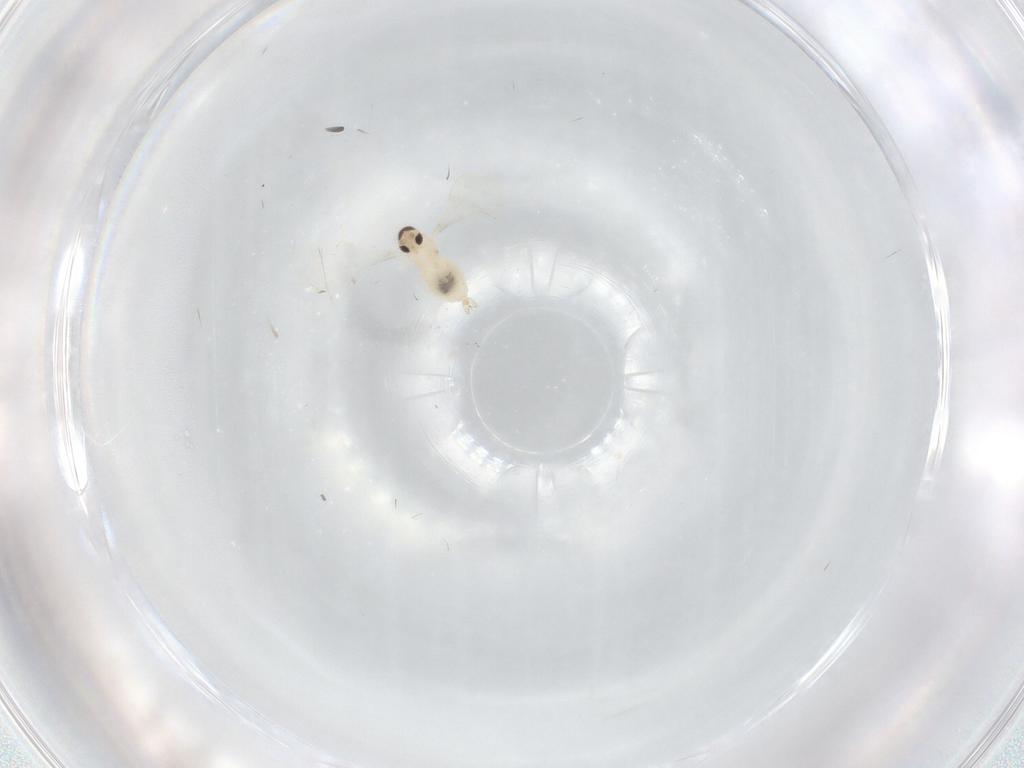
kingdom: Animalia
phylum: Arthropoda
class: Insecta
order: Diptera
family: Cecidomyiidae
